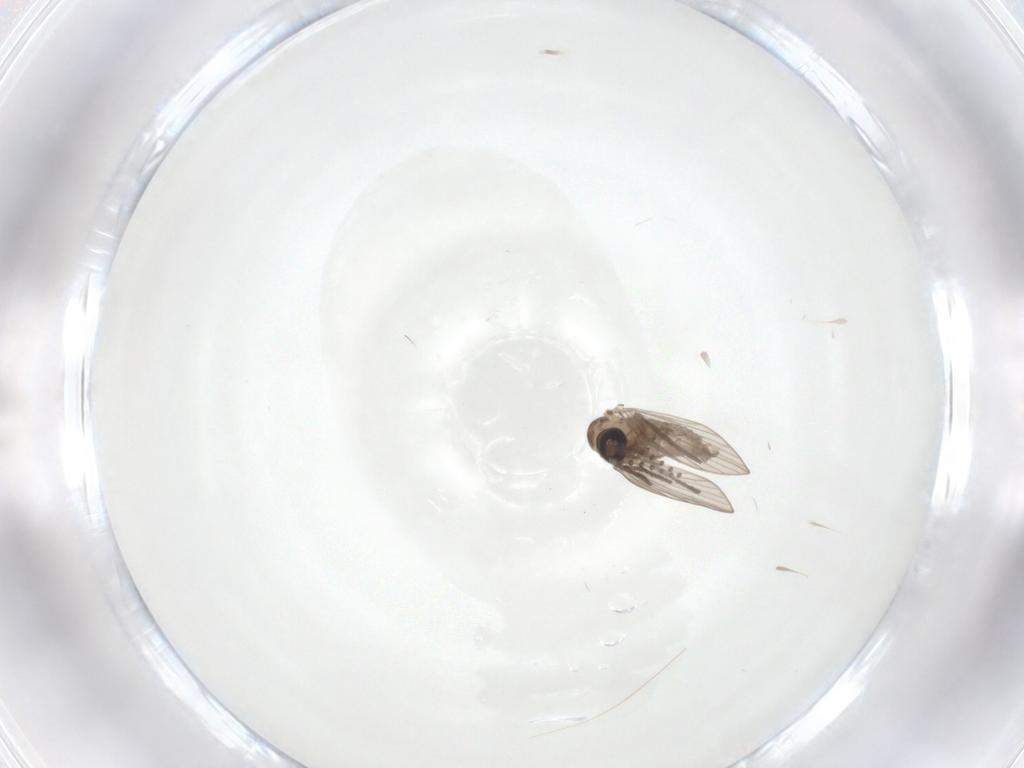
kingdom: Animalia
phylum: Arthropoda
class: Insecta
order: Diptera
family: Psychodidae
